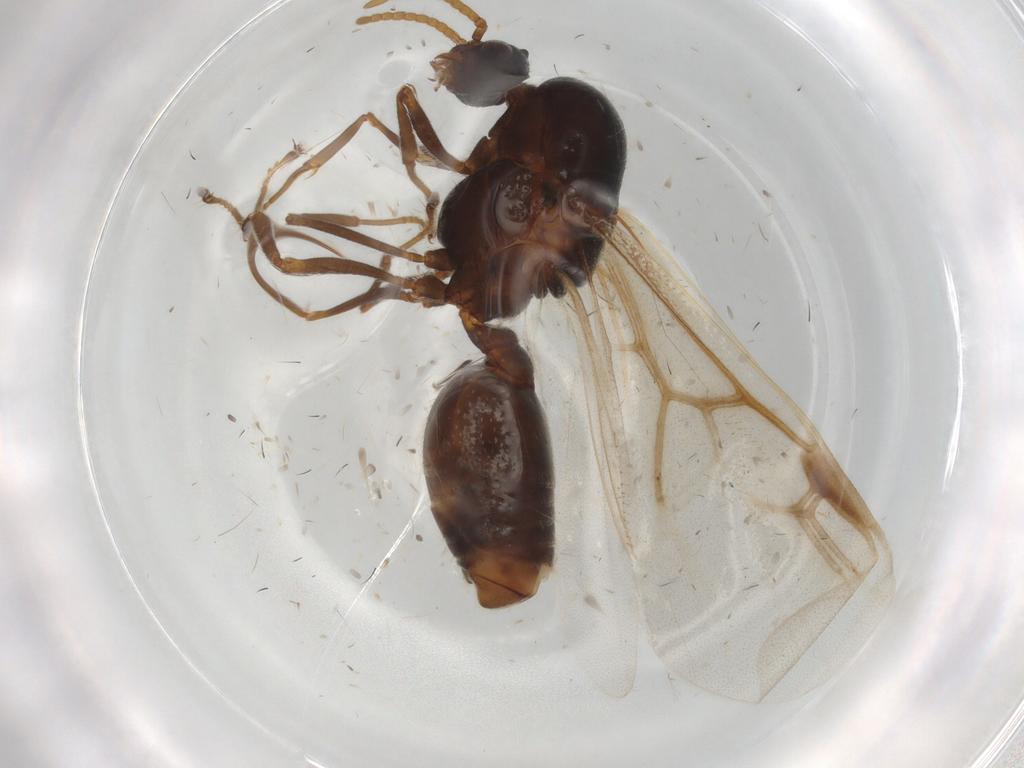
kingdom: Animalia
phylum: Arthropoda
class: Insecta
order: Hymenoptera
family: Formicidae
